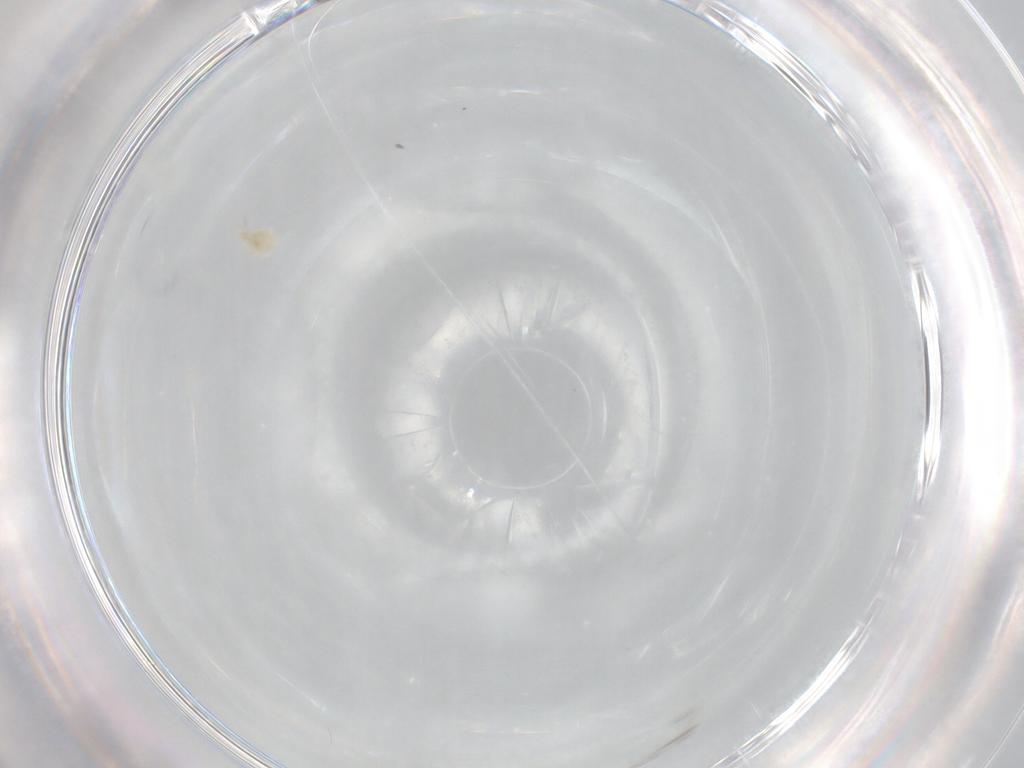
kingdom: Animalia
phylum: Arthropoda
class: Arachnida
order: Trombidiformes
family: Eupodidae
